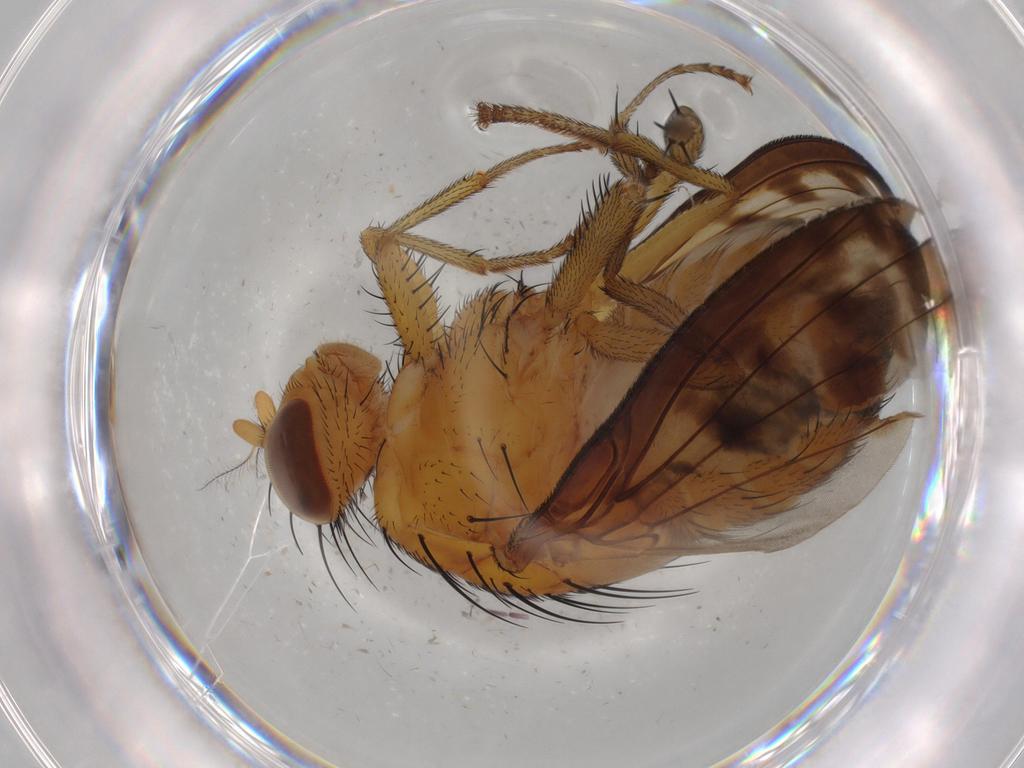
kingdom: Animalia
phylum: Arthropoda
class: Insecta
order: Diptera
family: Lauxaniidae
